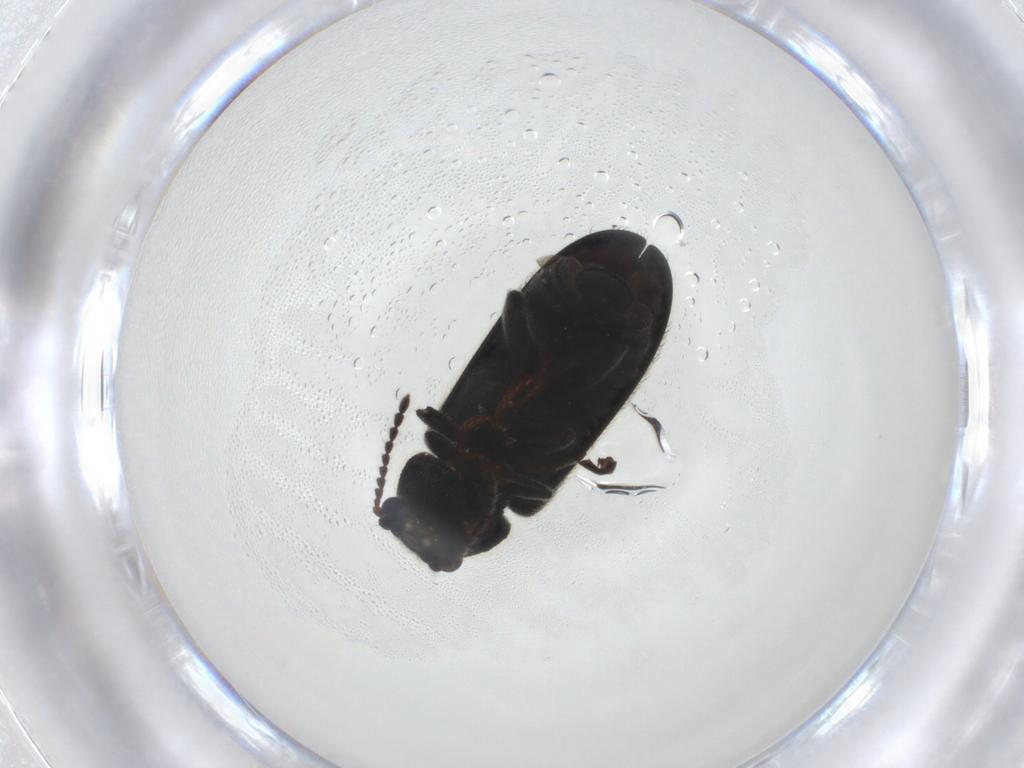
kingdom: Animalia
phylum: Arthropoda
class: Insecta
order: Coleoptera
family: Dasytidae
